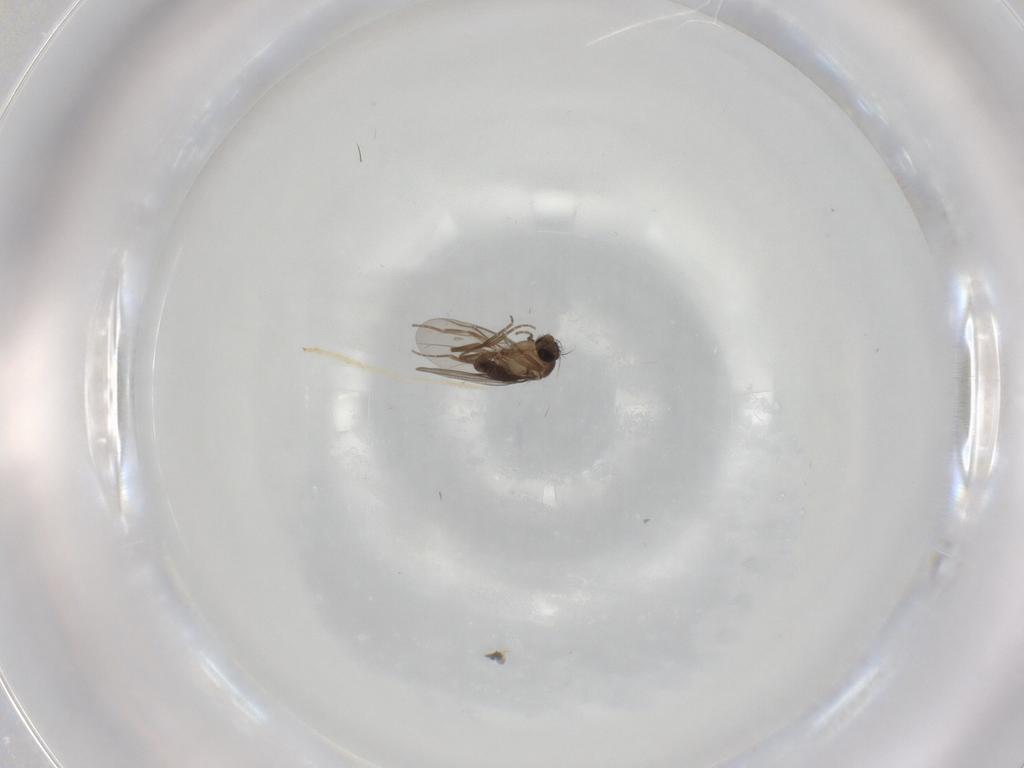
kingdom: Animalia
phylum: Arthropoda
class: Insecta
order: Diptera
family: Phoridae
